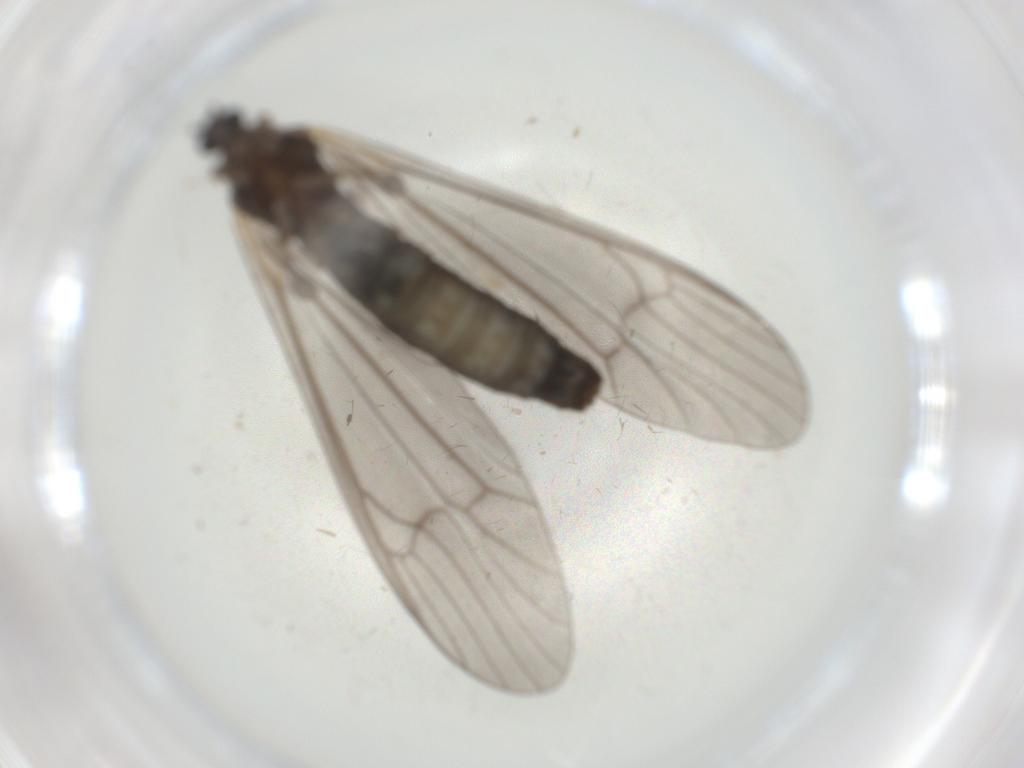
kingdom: Animalia
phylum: Arthropoda
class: Insecta
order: Diptera
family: Limoniidae
